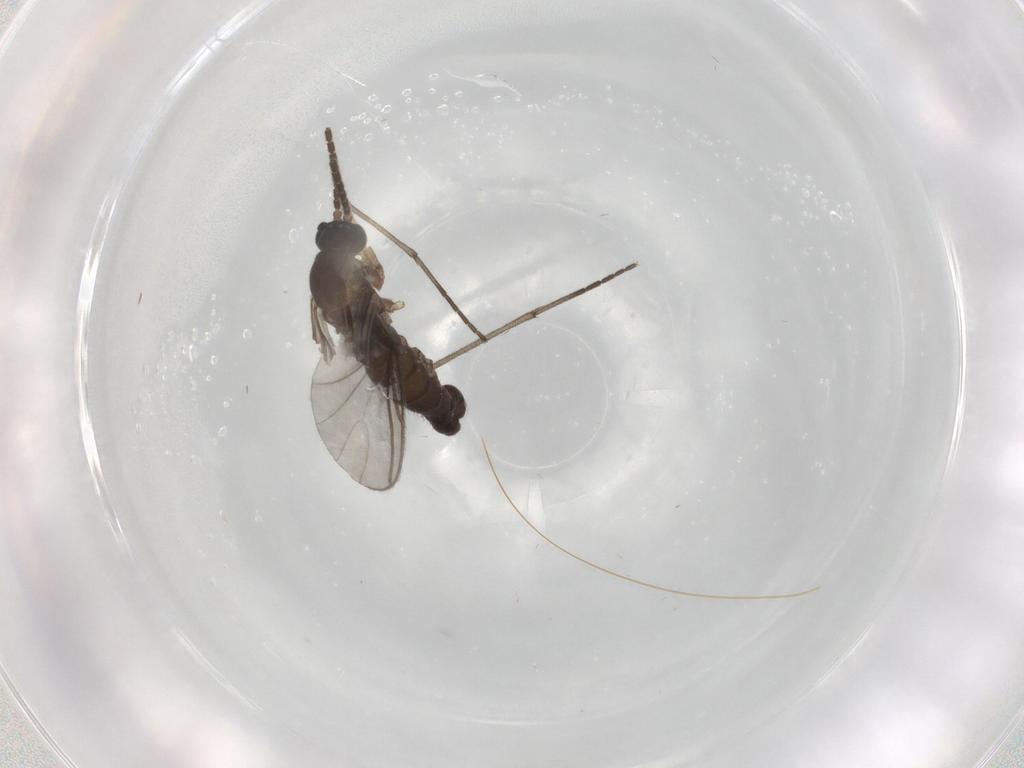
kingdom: Animalia
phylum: Arthropoda
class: Insecta
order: Diptera
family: Sciaridae
